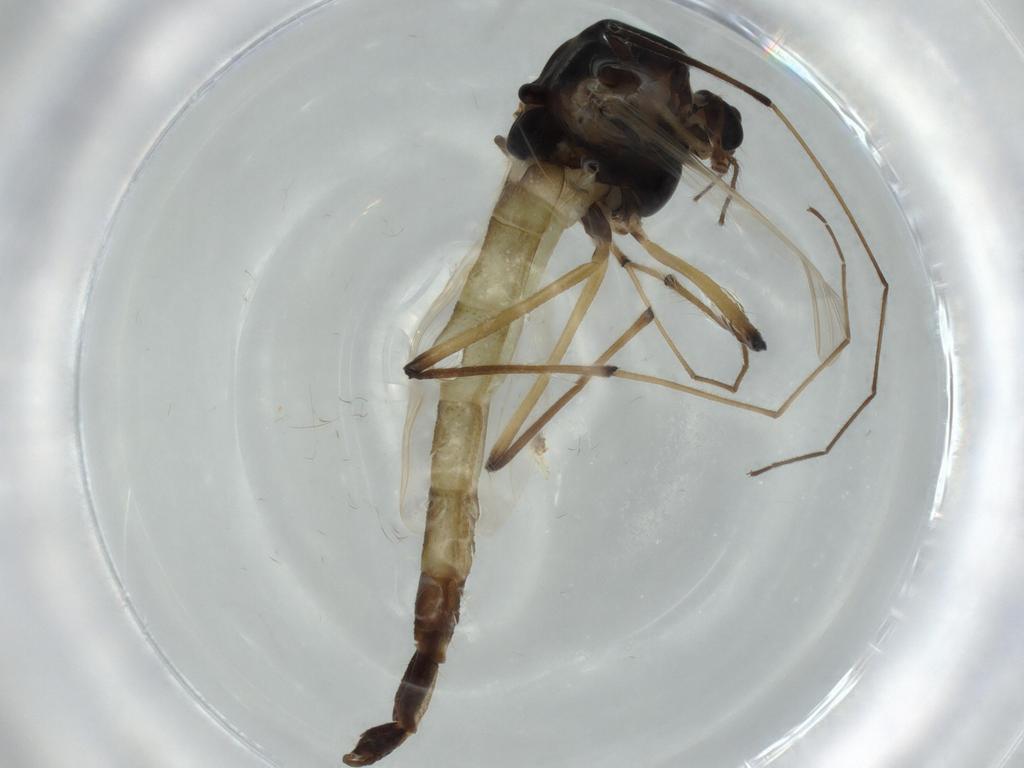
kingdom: Animalia
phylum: Arthropoda
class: Insecta
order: Diptera
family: Chironomidae
